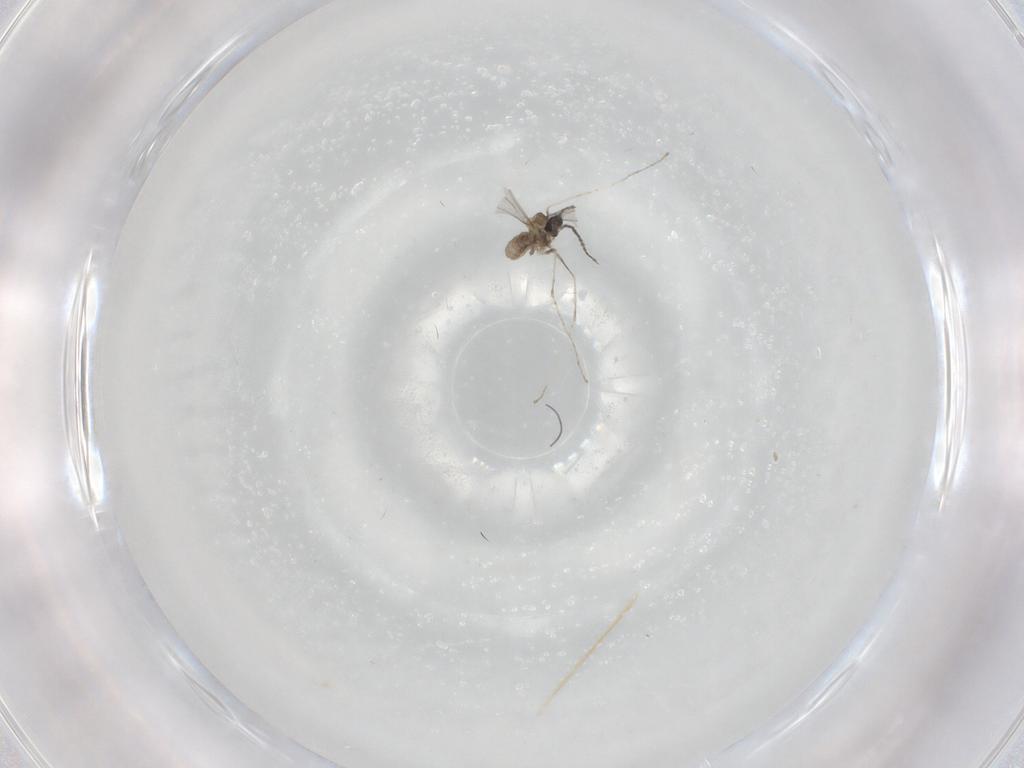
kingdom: Animalia
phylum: Arthropoda
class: Insecta
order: Diptera
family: Cecidomyiidae
